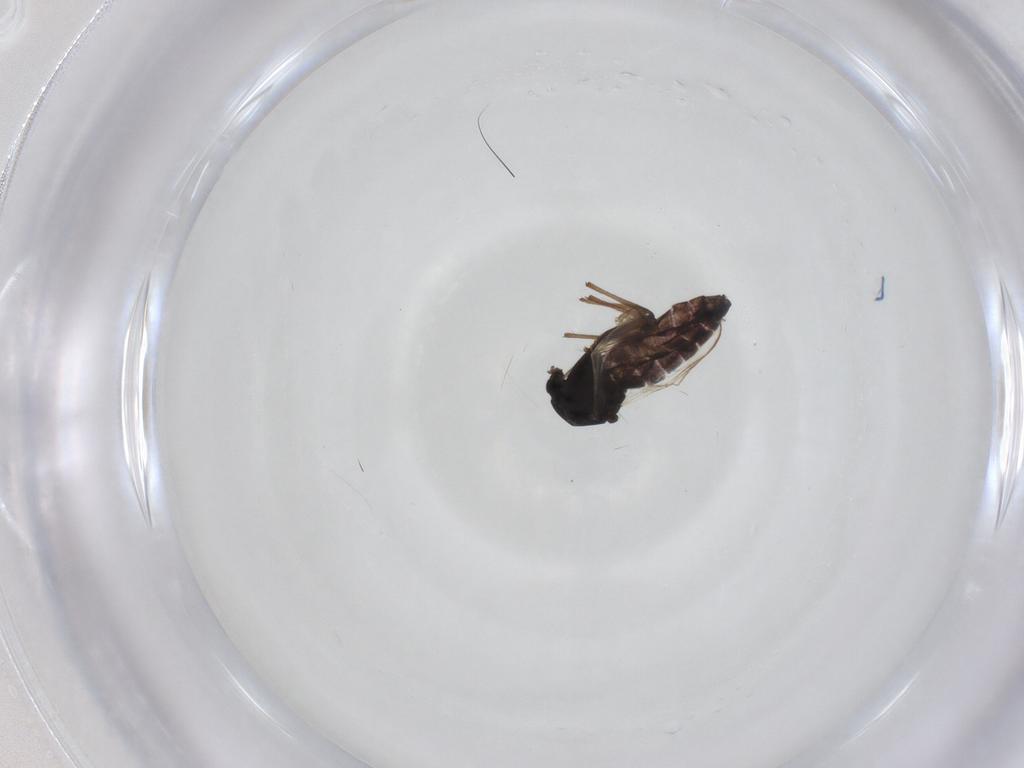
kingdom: Animalia
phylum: Arthropoda
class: Insecta
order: Diptera
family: Chironomidae
